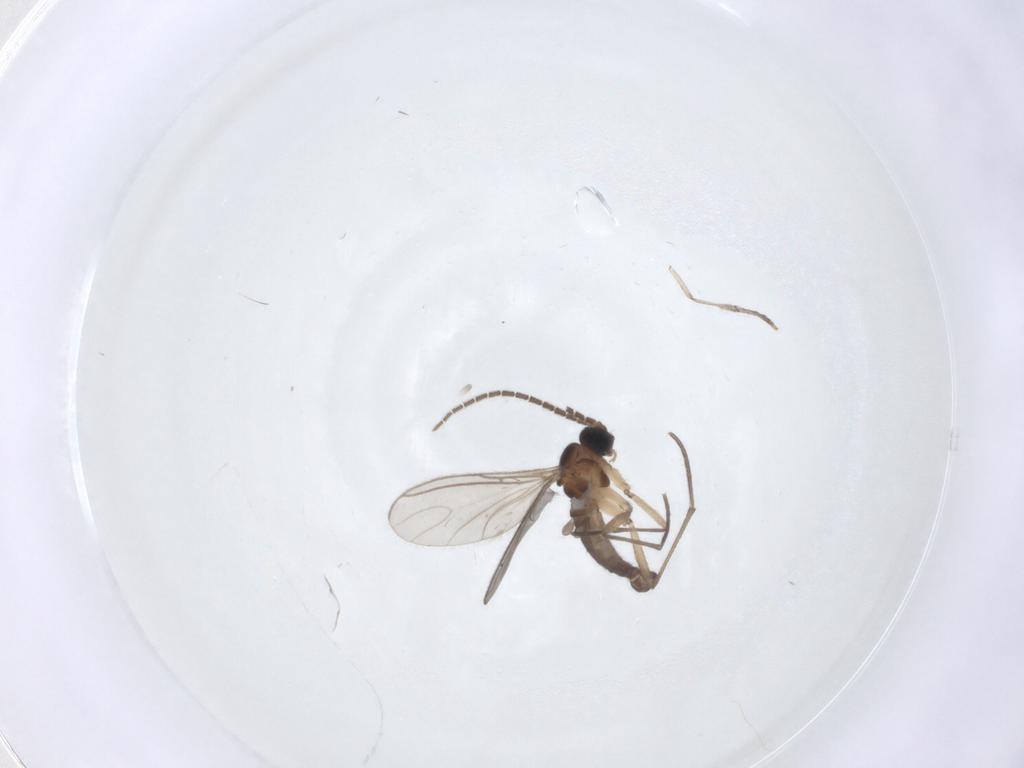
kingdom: Animalia
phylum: Arthropoda
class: Insecta
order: Diptera
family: Sciaridae
